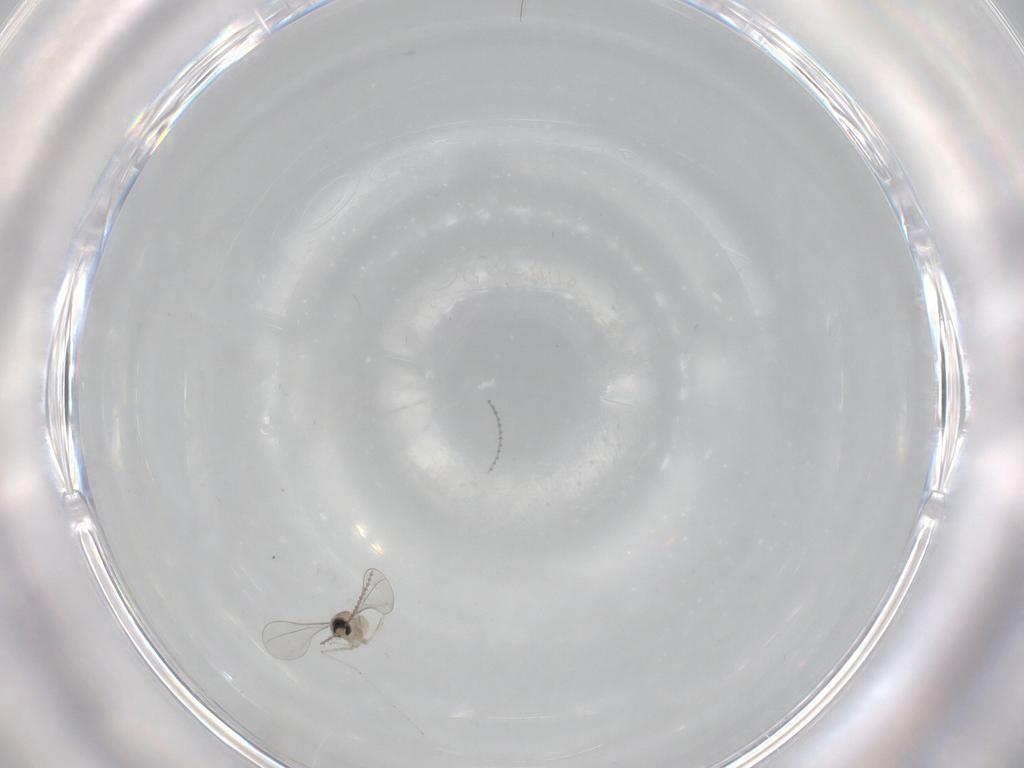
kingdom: Animalia
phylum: Arthropoda
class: Insecta
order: Diptera
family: Cecidomyiidae
